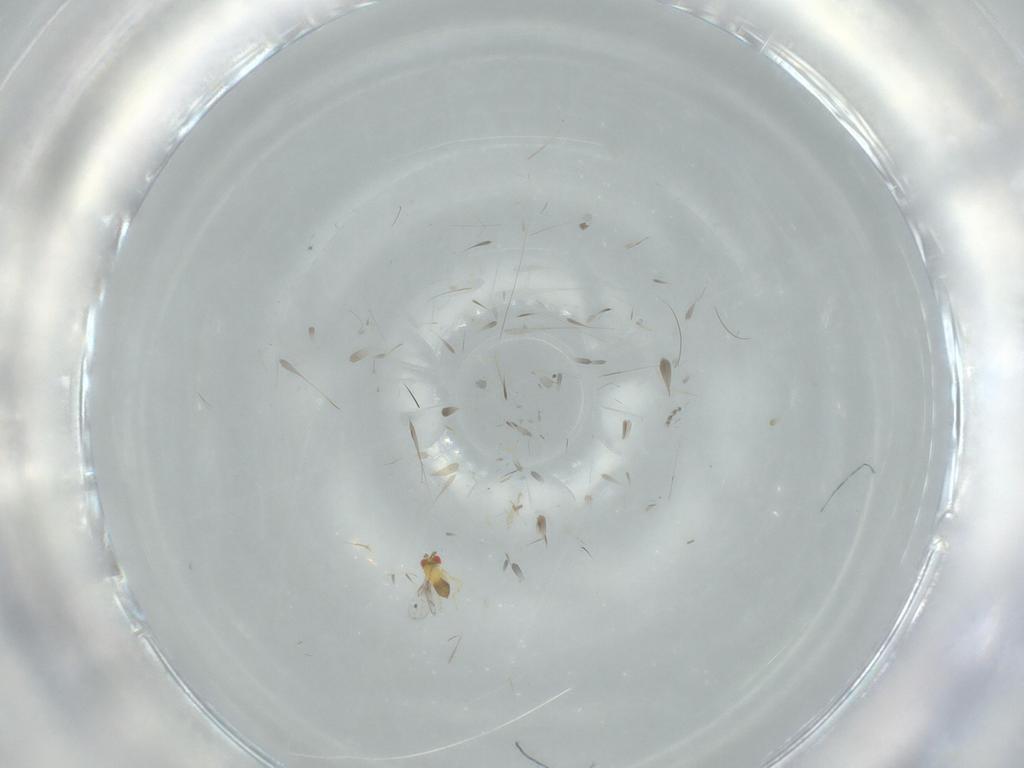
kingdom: Animalia
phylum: Arthropoda
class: Insecta
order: Hymenoptera
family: Trichogrammatidae
